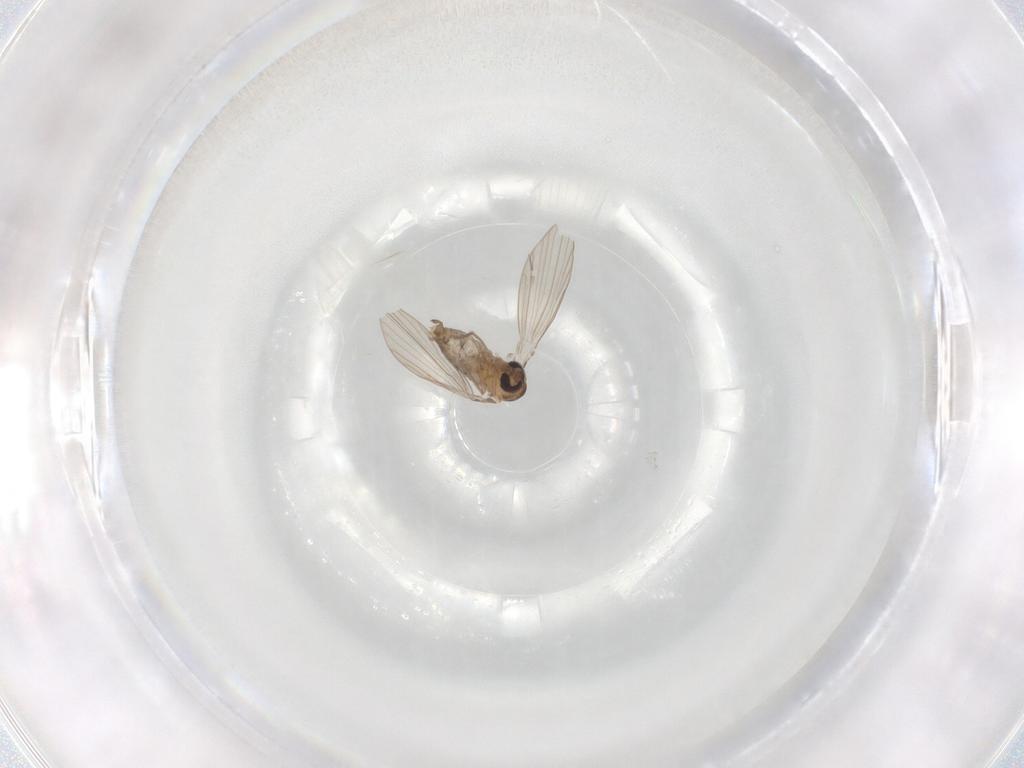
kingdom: Animalia
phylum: Arthropoda
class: Insecta
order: Diptera
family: Psychodidae
